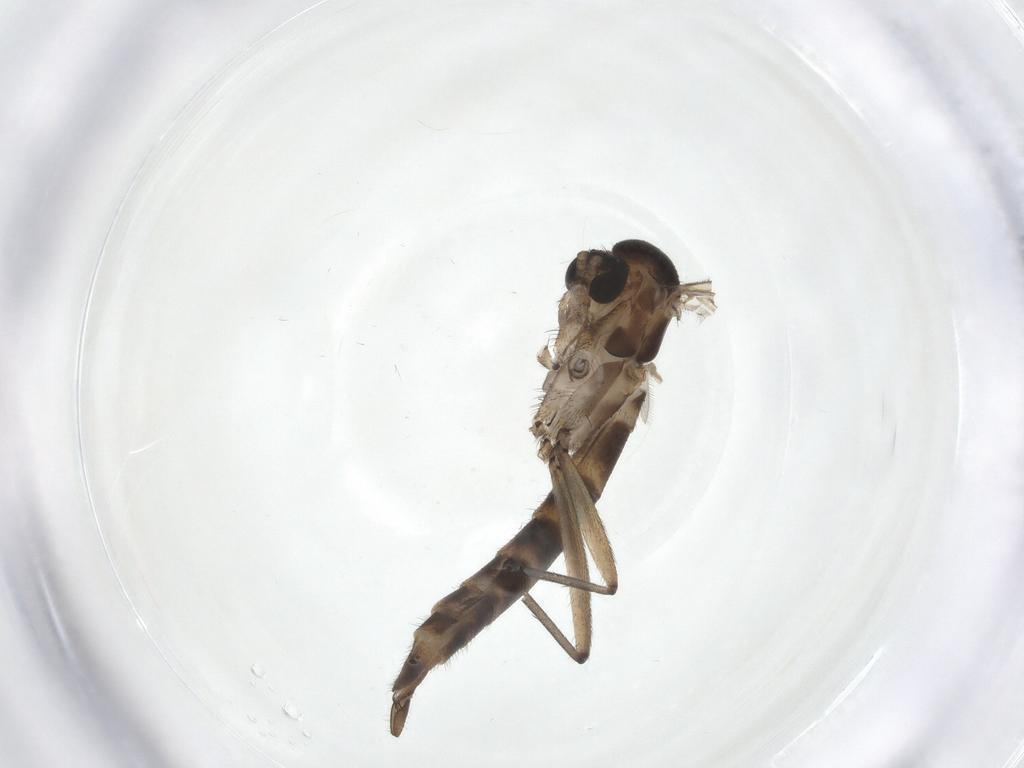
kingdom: Animalia
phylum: Arthropoda
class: Insecta
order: Diptera
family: Mycetophilidae
